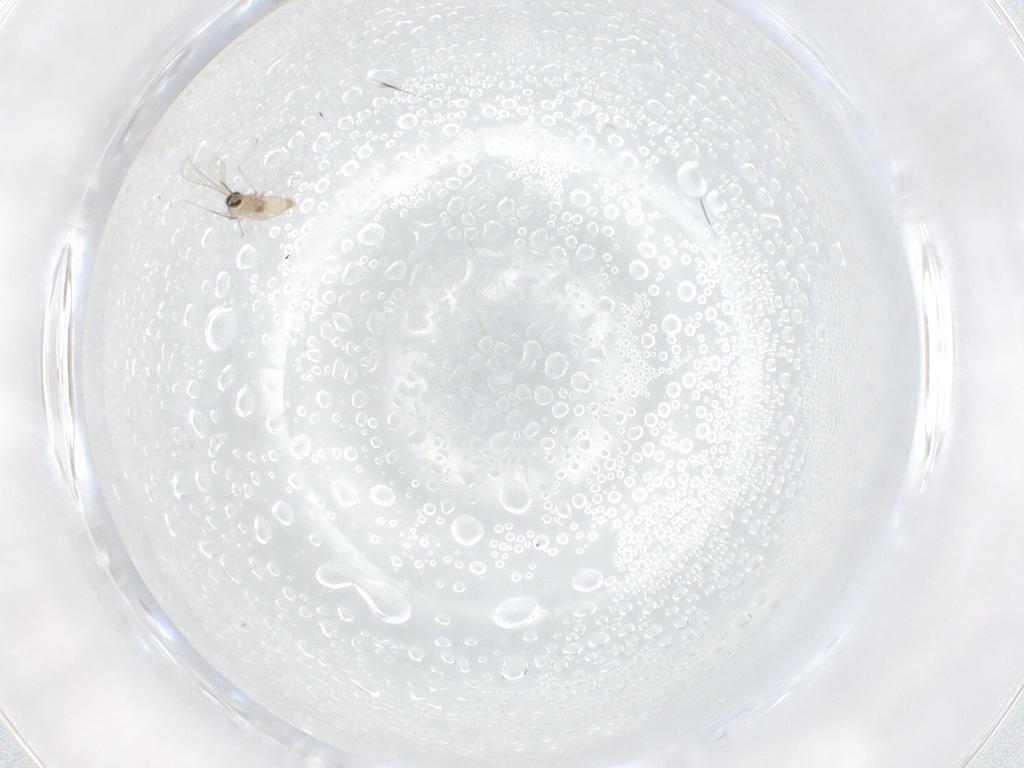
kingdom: Animalia
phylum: Arthropoda
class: Insecta
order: Diptera
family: Drosophilidae
